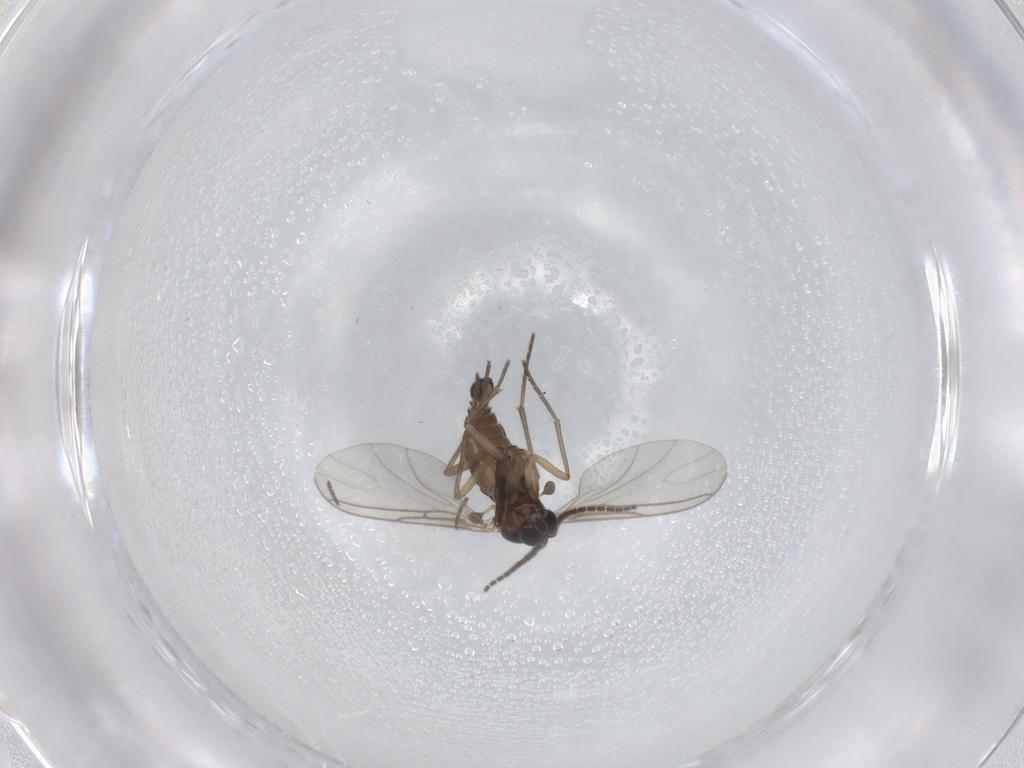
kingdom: Animalia
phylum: Arthropoda
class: Insecta
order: Diptera
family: Sciaridae
